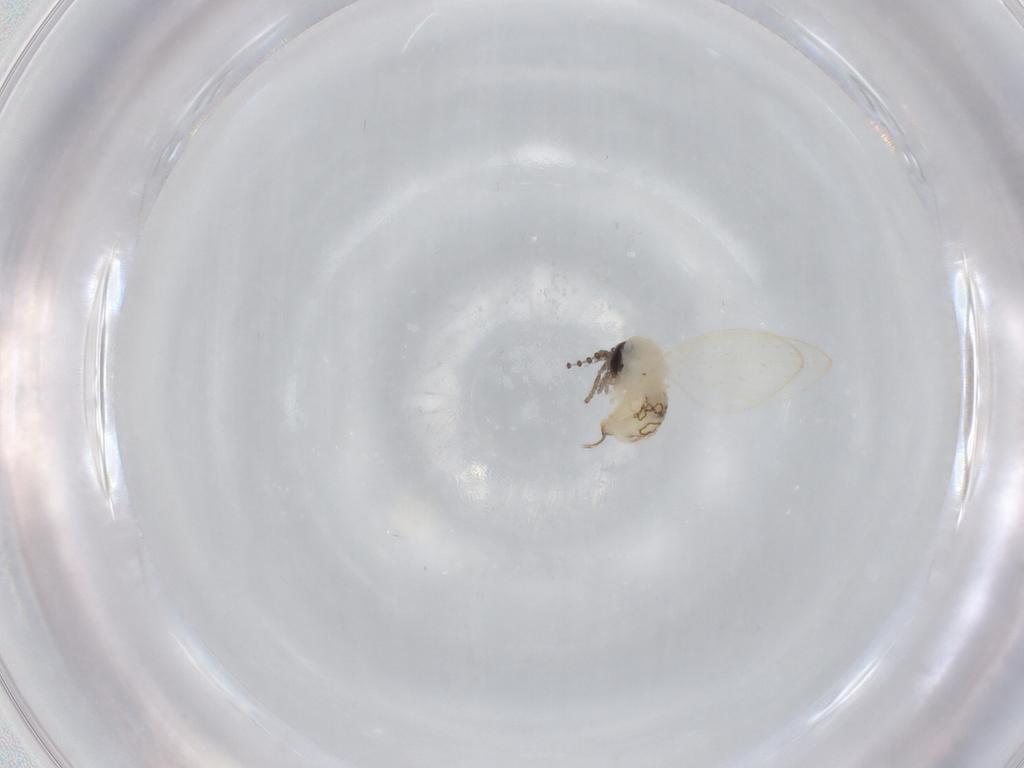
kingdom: Animalia
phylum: Arthropoda
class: Insecta
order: Diptera
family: Psychodidae
